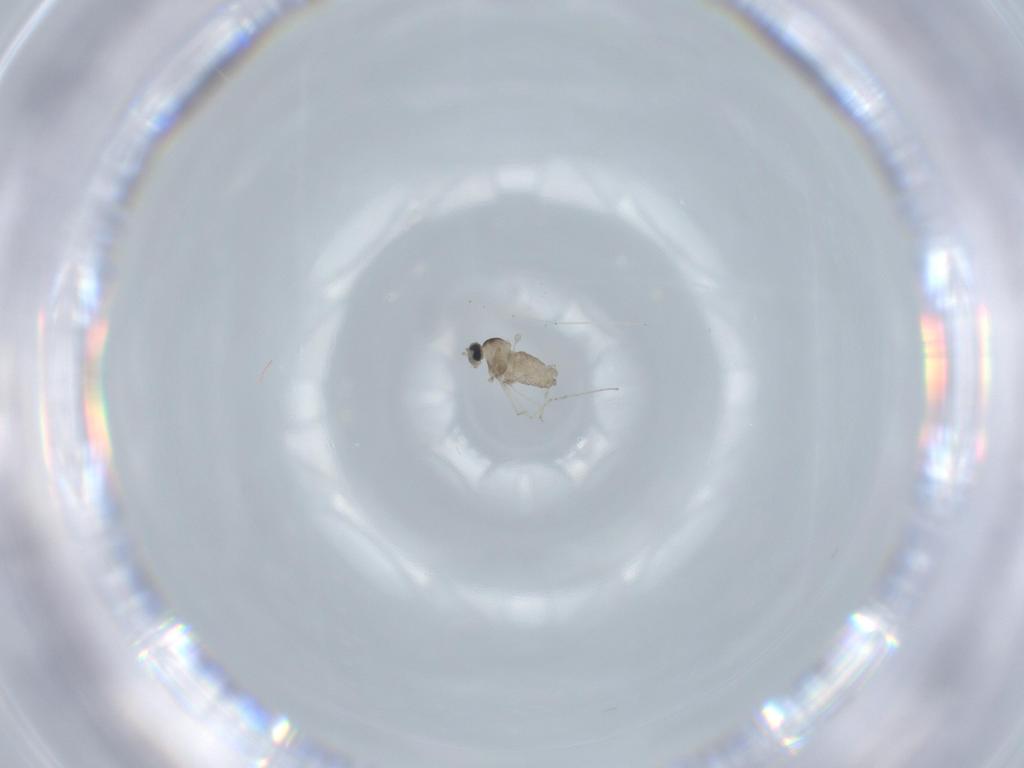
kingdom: Animalia
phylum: Arthropoda
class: Insecta
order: Diptera
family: Cecidomyiidae
